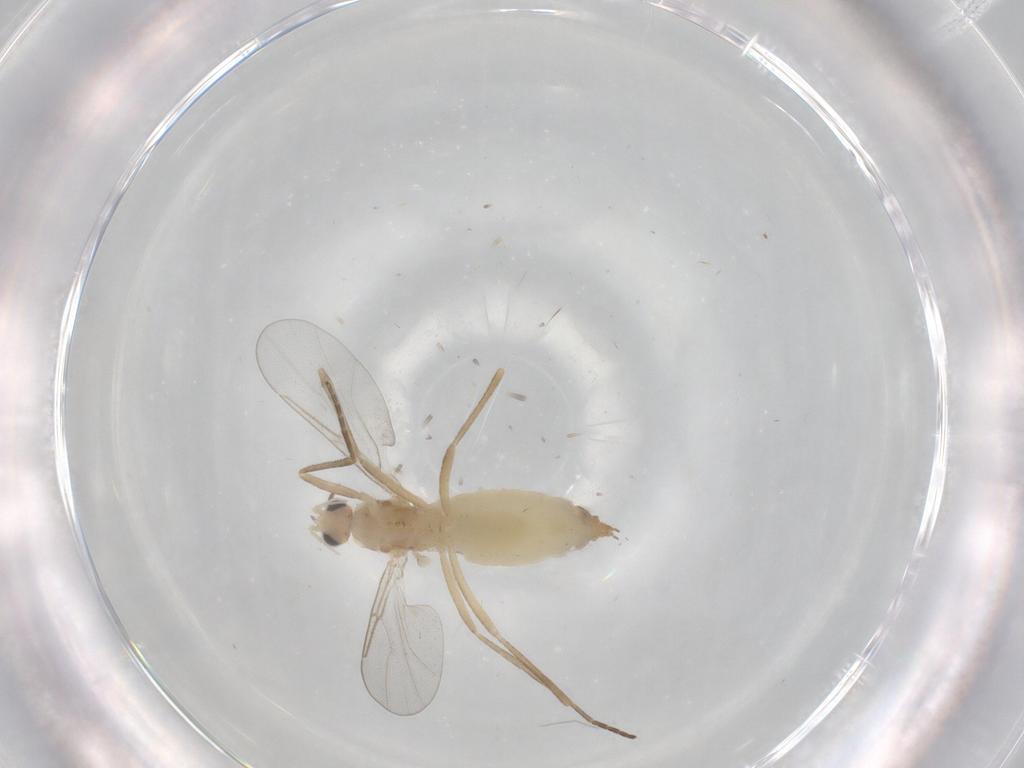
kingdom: Animalia
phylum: Arthropoda
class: Insecta
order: Diptera
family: Cecidomyiidae
